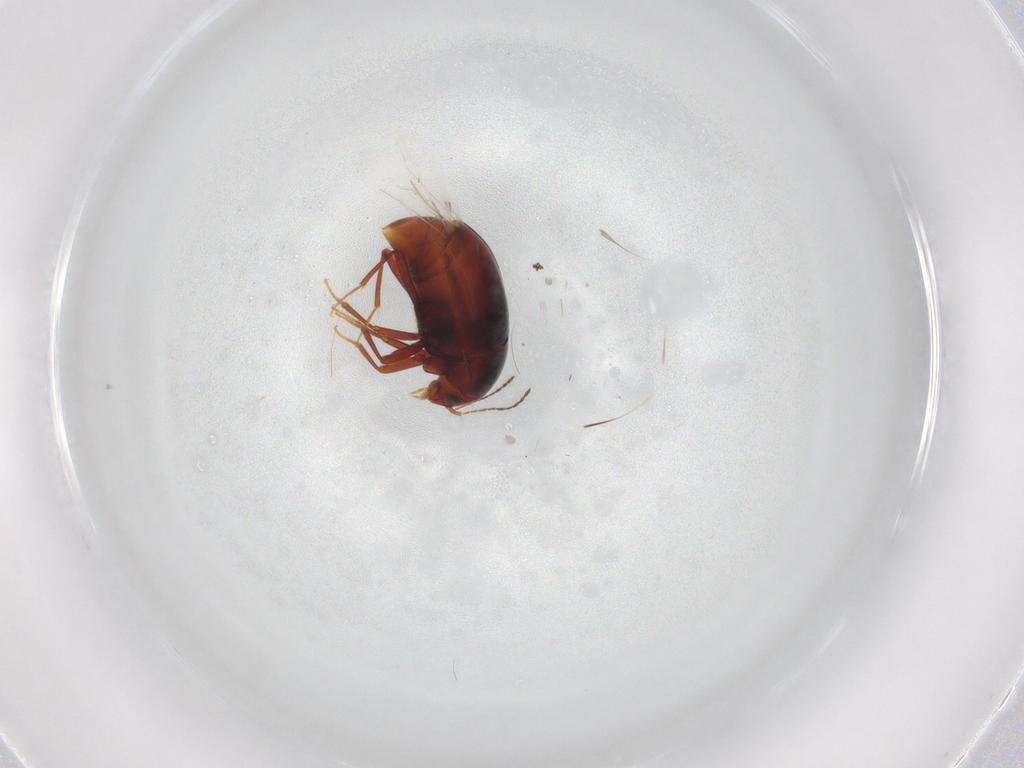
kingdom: Animalia
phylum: Arthropoda
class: Insecta
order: Coleoptera
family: Staphylinidae
